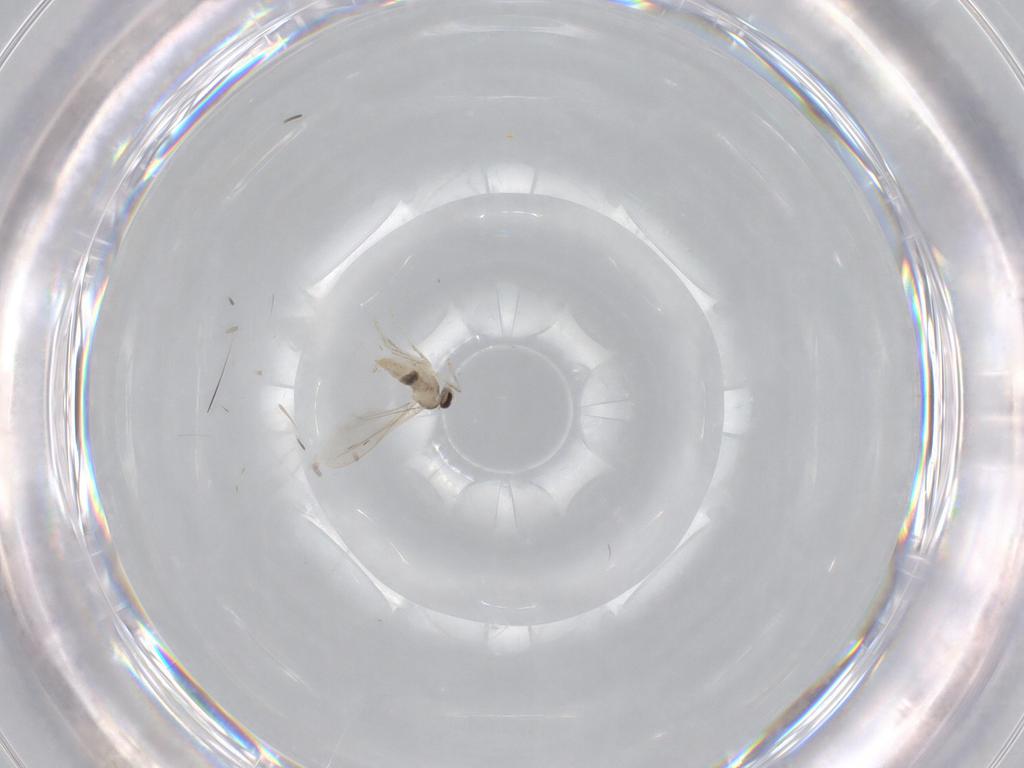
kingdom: Animalia
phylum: Arthropoda
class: Insecta
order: Diptera
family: Cecidomyiidae
